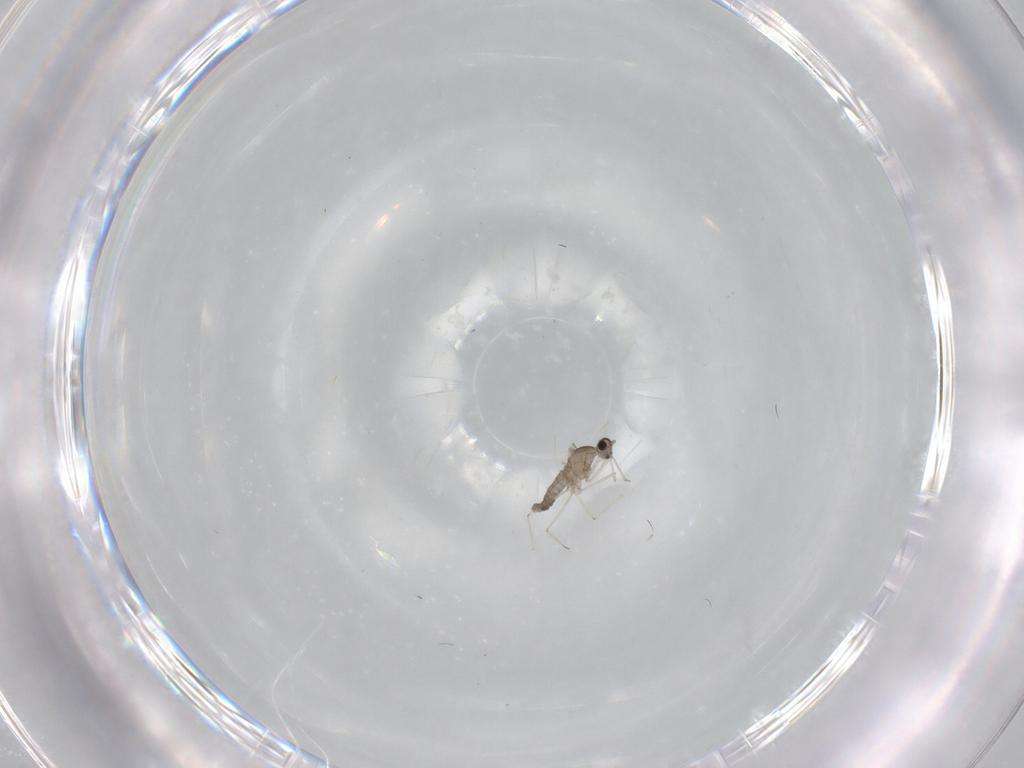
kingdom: Animalia
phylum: Arthropoda
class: Insecta
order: Diptera
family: Cecidomyiidae
